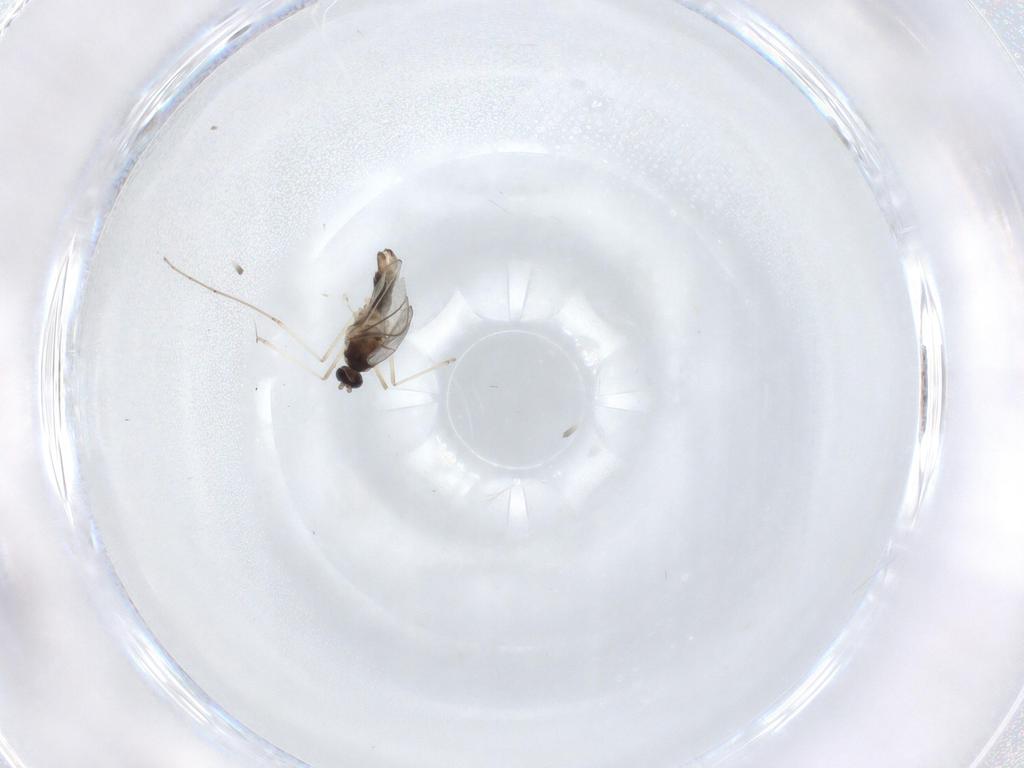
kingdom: Animalia
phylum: Arthropoda
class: Insecta
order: Diptera
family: Cecidomyiidae
